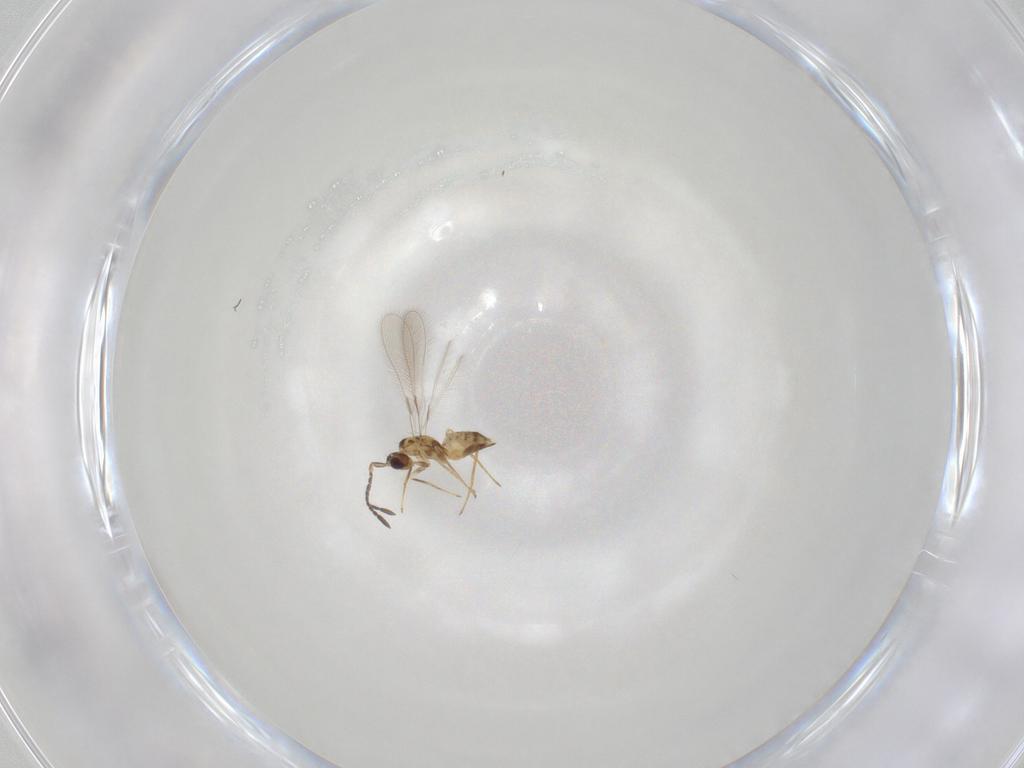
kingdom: Animalia
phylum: Arthropoda
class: Insecta
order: Hymenoptera
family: Mymaridae
